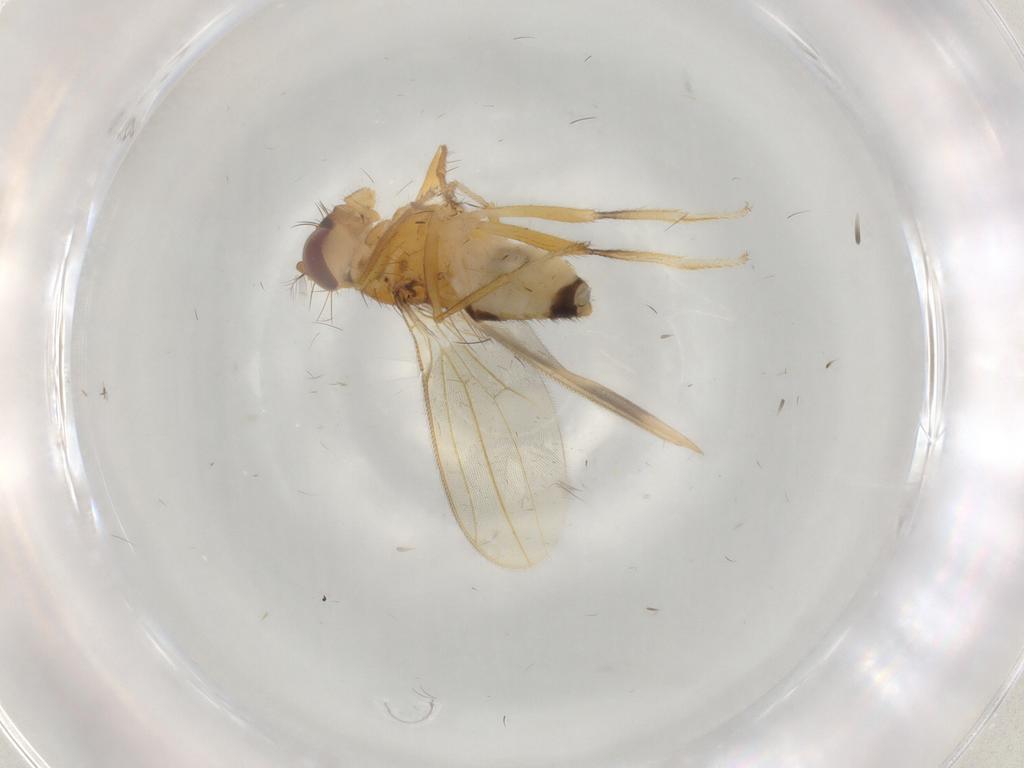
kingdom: Animalia
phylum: Arthropoda
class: Insecta
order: Diptera
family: Periscelididae
